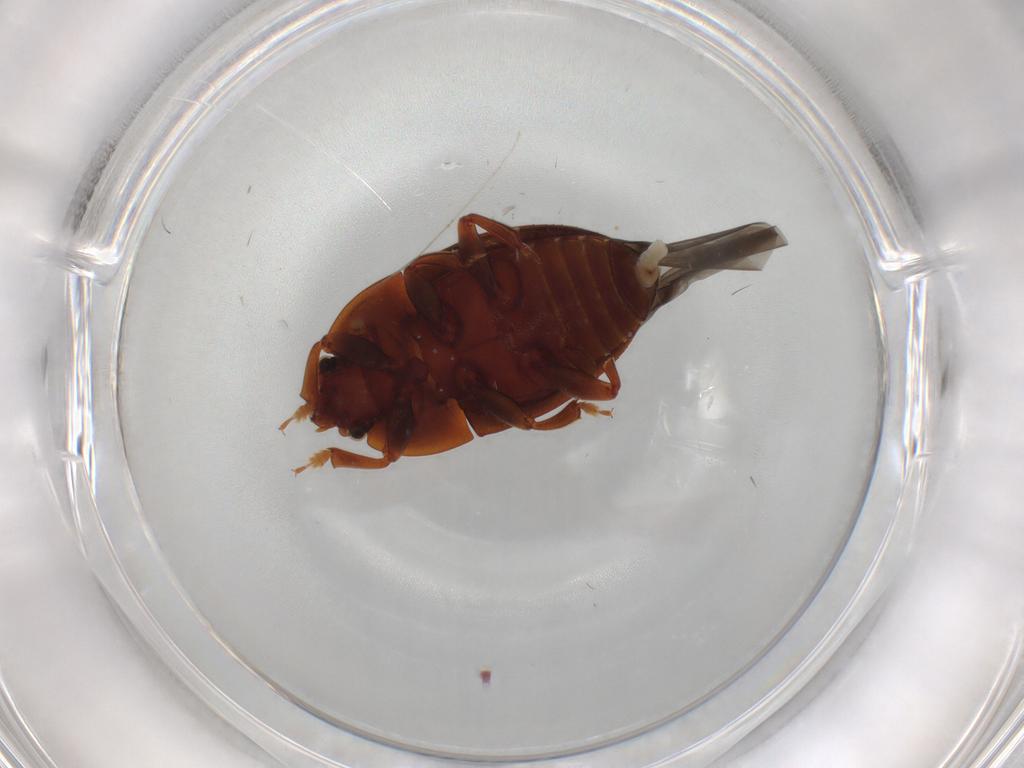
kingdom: Animalia
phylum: Arthropoda
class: Insecta
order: Coleoptera
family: Nitidulidae
